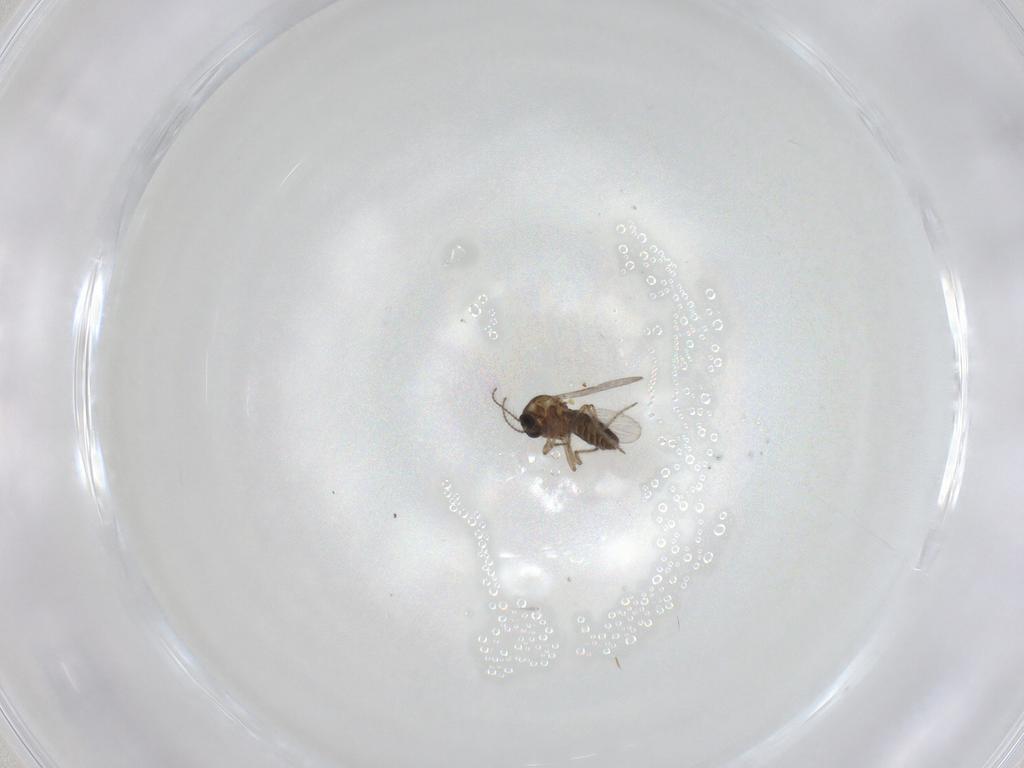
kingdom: Animalia
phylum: Arthropoda
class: Insecta
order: Diptera
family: Ceratopogonidae
